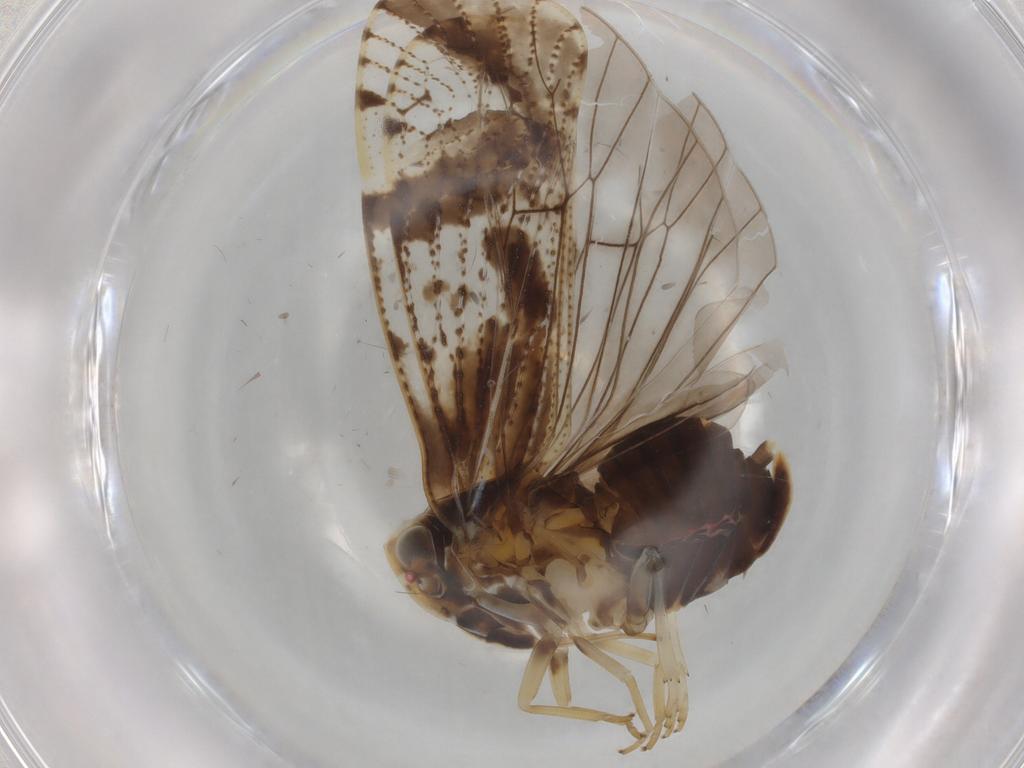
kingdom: Animalia
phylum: Arthropoda
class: Insecta
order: Hemiptera
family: Cixiidae
